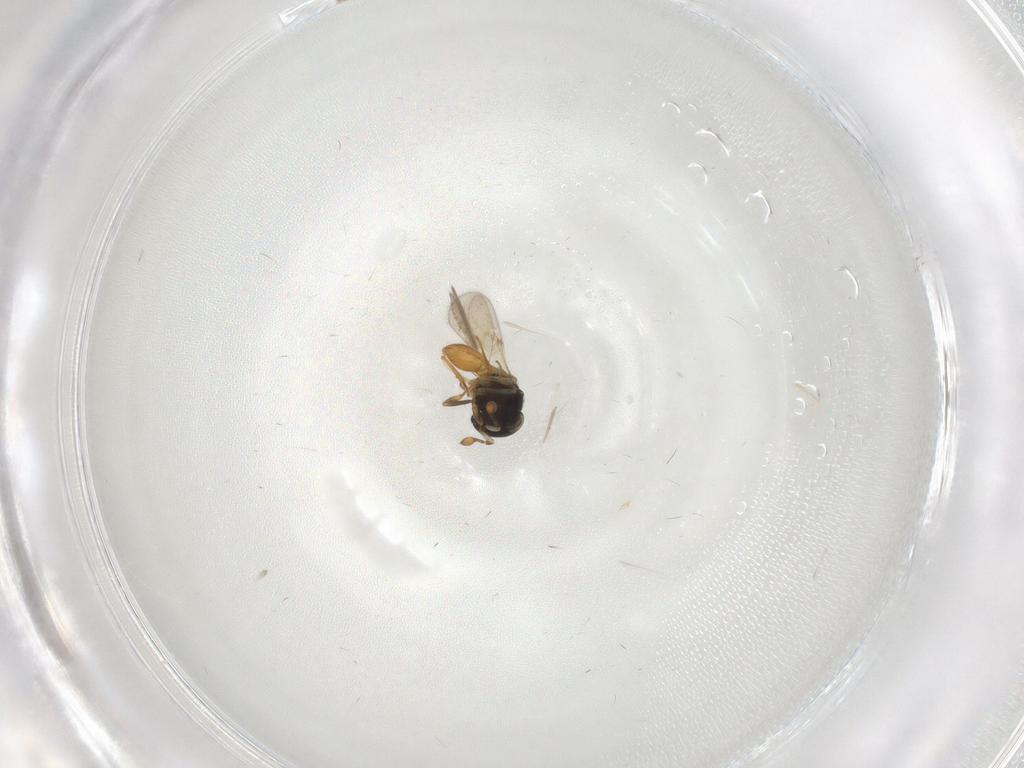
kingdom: Animalia
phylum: Arthropoda
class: Insecta
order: Hymenoptera
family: Scelionidae
